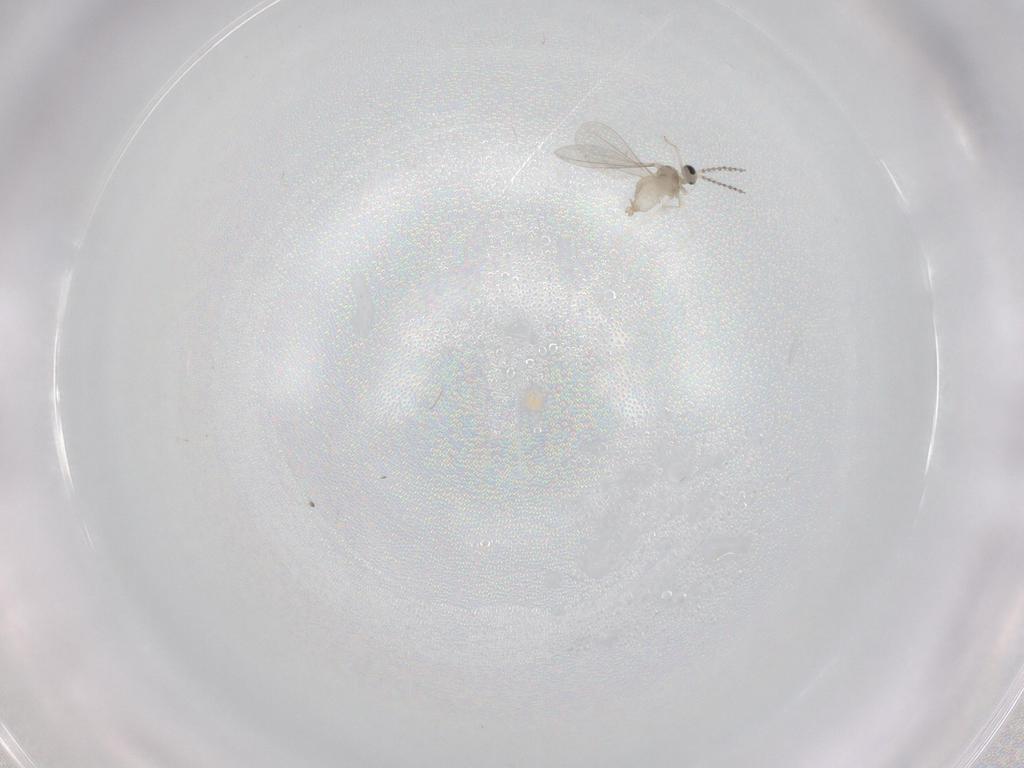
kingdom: Animalia
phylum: Arthropoda
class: Insecta
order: Diptera
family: Cecidomyiidae
